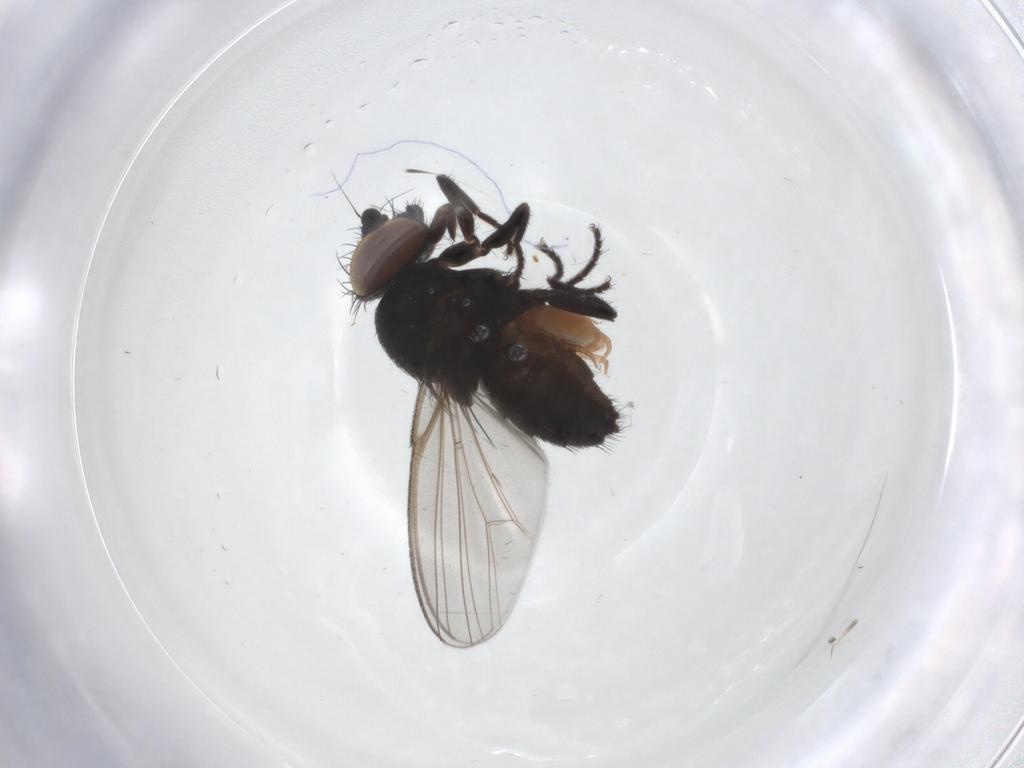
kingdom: Animalia
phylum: Arthropoda
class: Insecta
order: Diptera
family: Milichiidae
